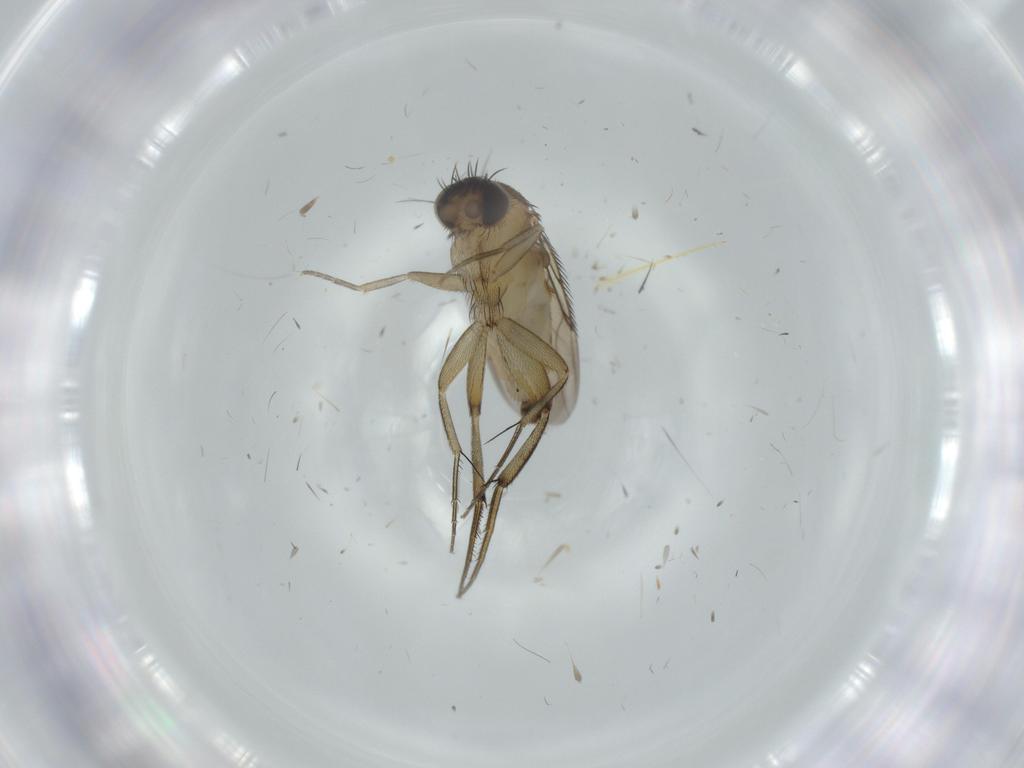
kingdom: Animalia
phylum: Arthropoda
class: Insecta
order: Diptera
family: Phoridae
